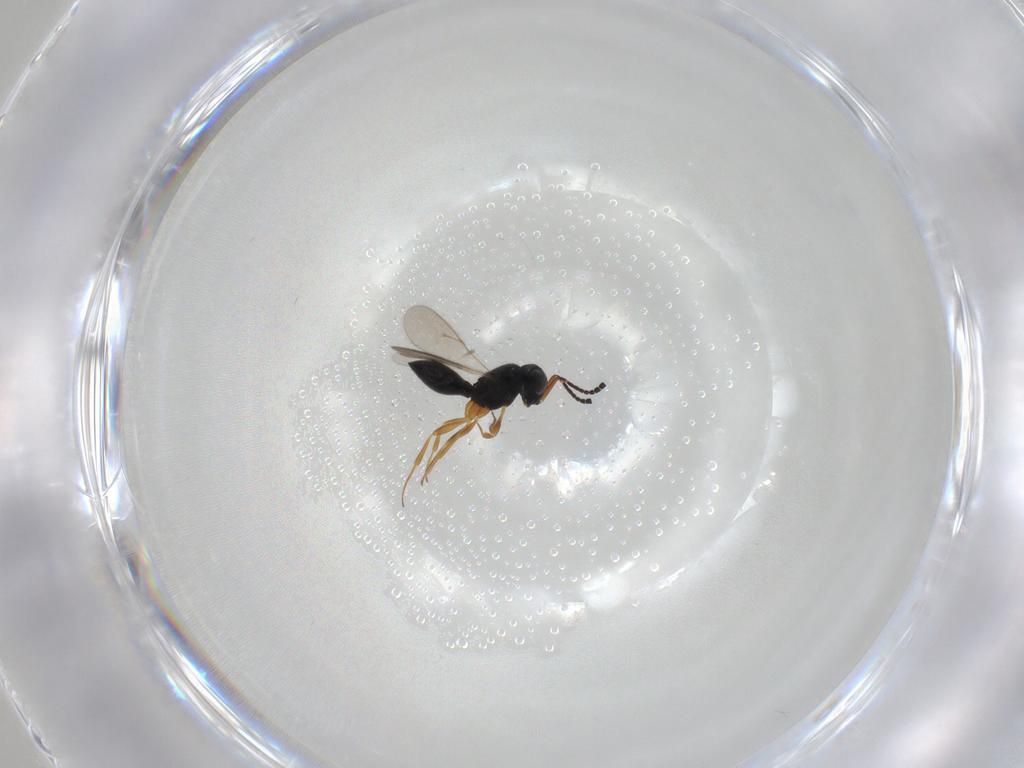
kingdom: Animalia
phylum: Arthropoda
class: Insecta
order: Hymenoptera
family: Scelionidae
